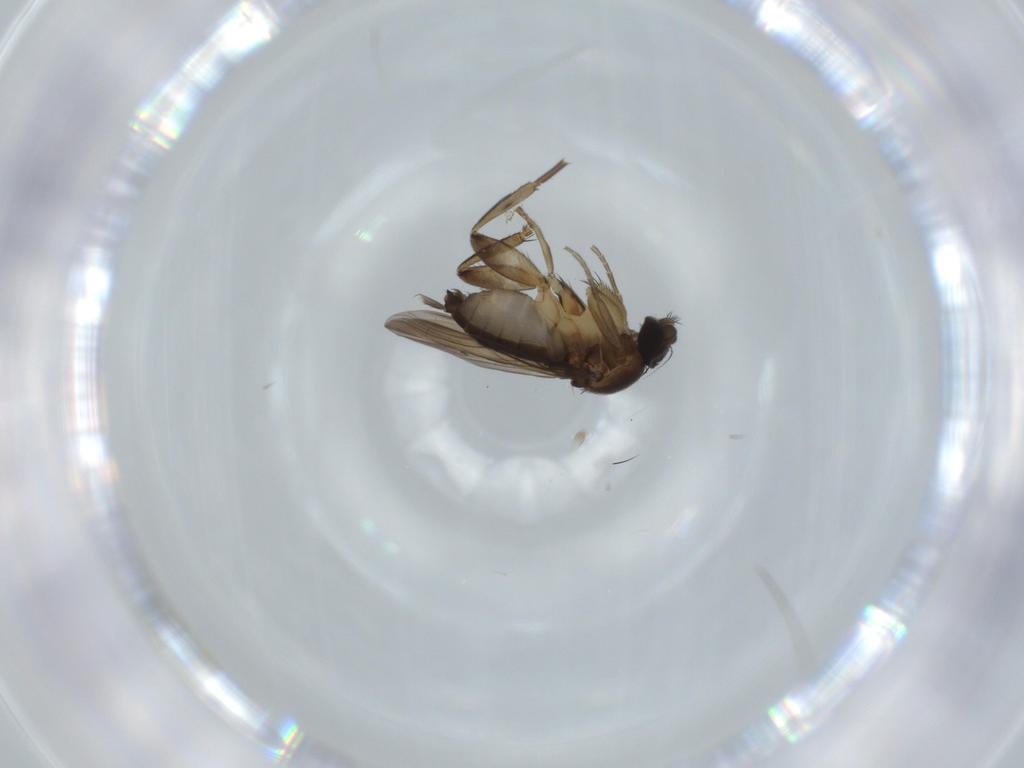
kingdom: Animalia
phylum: Arthropoda
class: Insecta
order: Diptera
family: Phoridae
